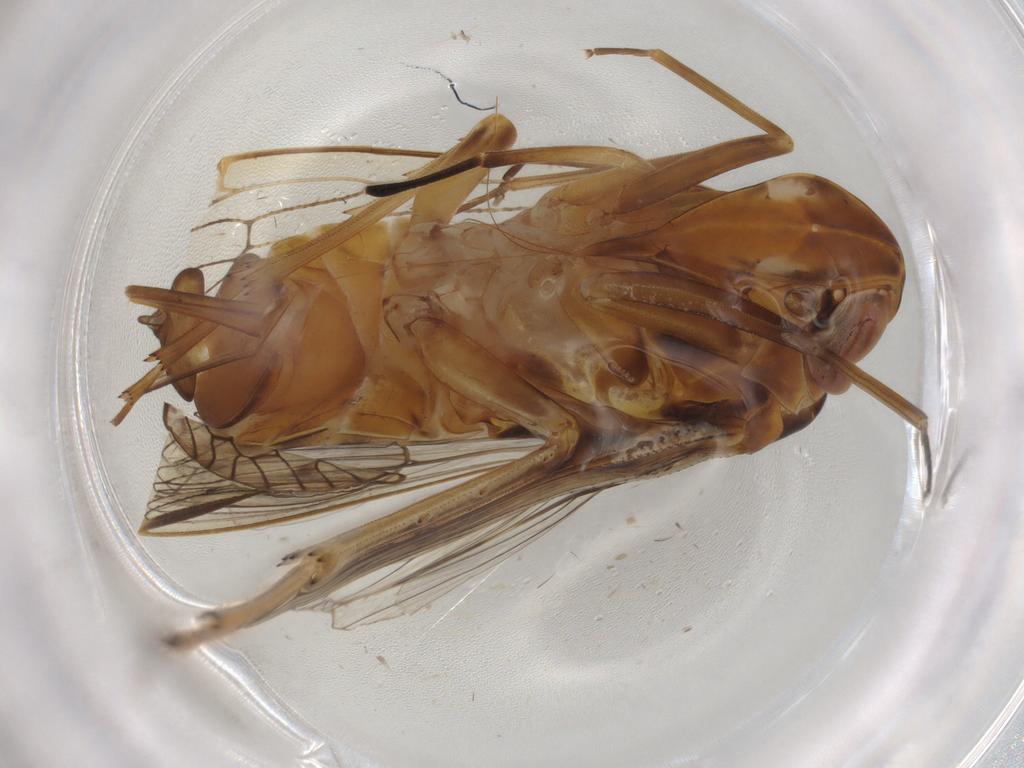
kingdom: Animalia
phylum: Arthropoda
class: Insecta
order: Hemiptera
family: Cixiidae
